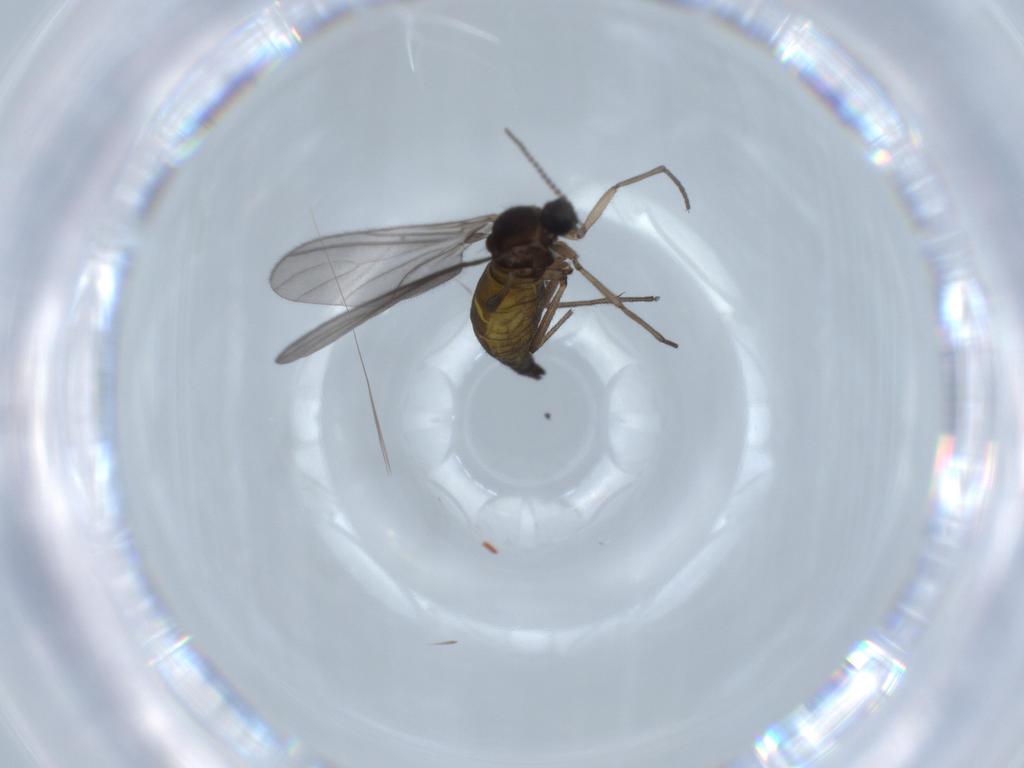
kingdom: Animalia
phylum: Arthropoda
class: Insecta
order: Diptera
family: Sciaridae
